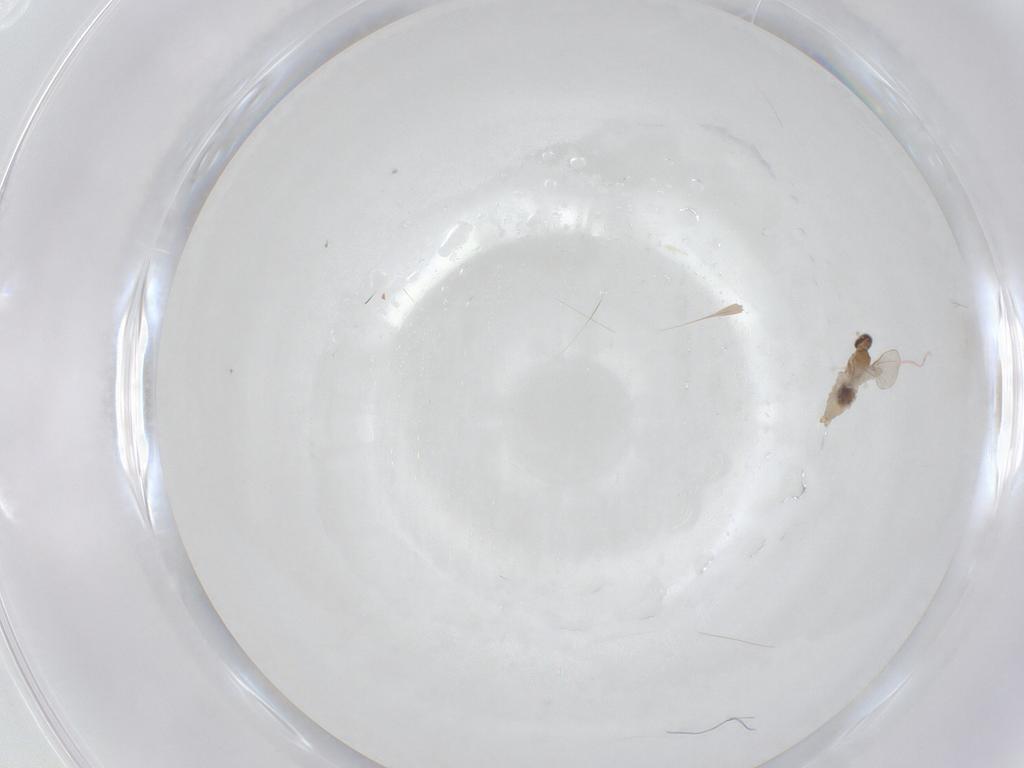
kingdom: Animalia
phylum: Arthropoda
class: Insecta
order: Diptera
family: Cecidomyiidae
